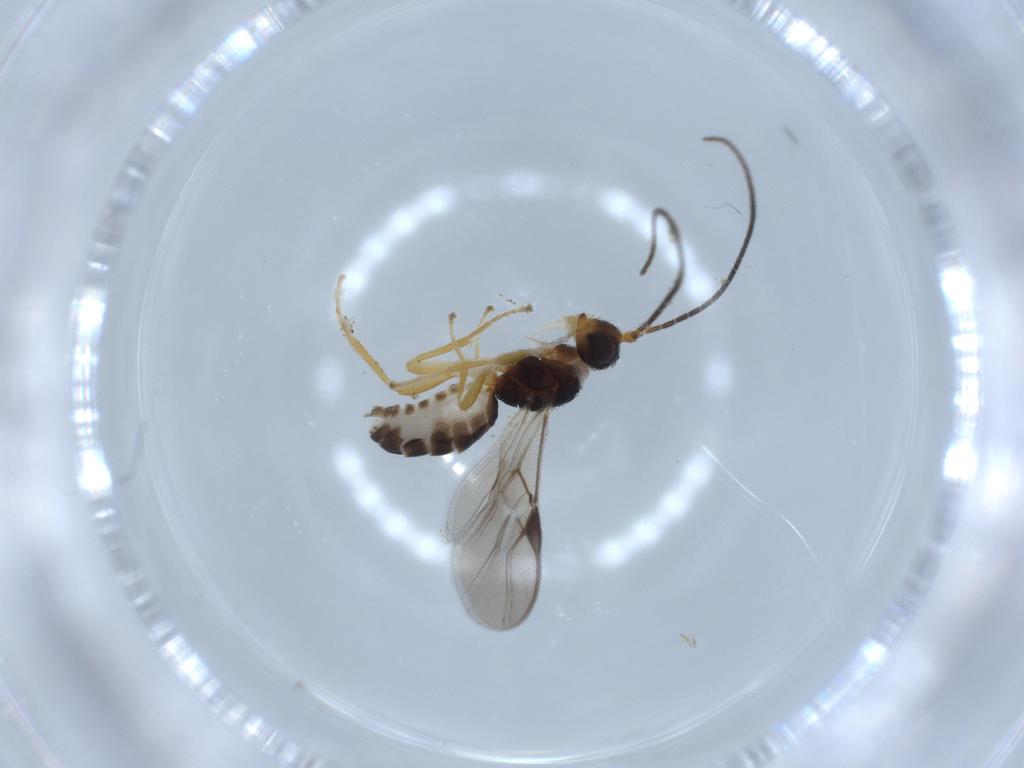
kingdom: Animalia
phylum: Arthropoda
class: Insecta
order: Hymenoptera
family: Braconidae
